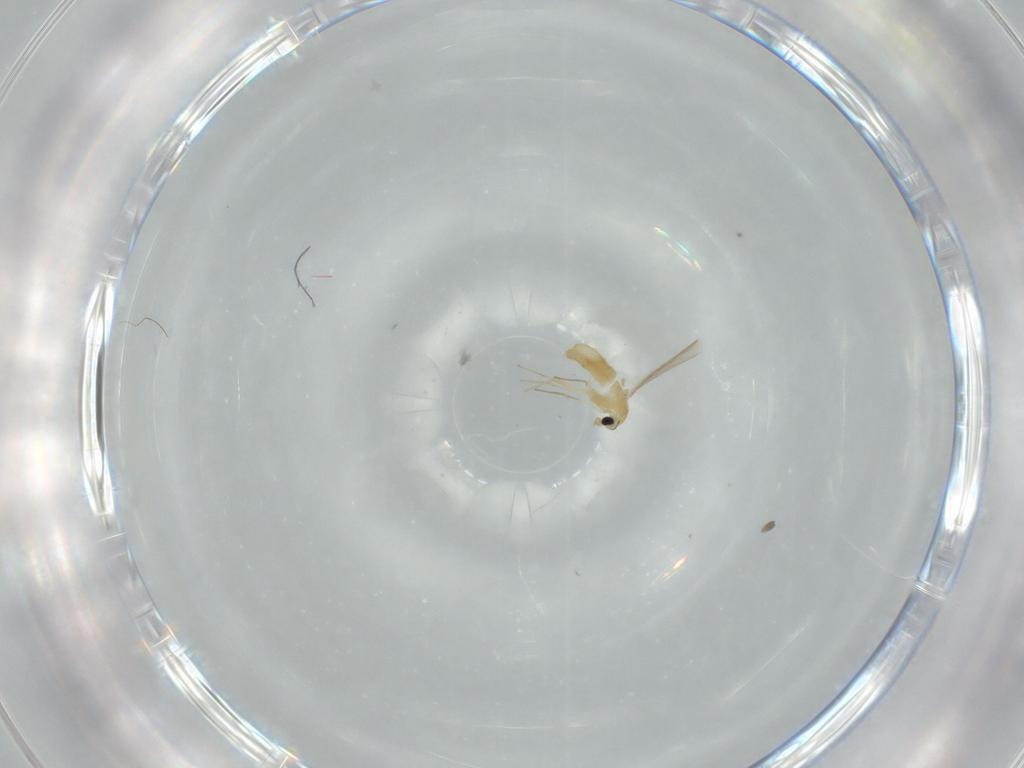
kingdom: Animalia
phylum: Arthropoda
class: Insecta
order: Diptera
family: Chironomidae
